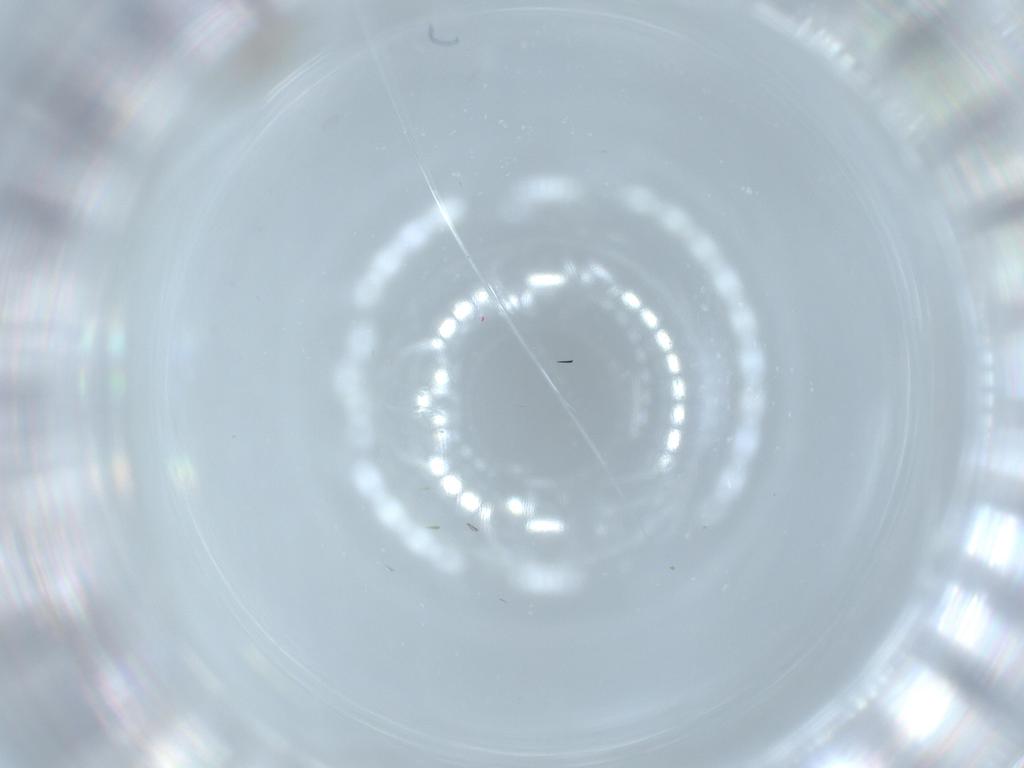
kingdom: Animalia
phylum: Arthropoda
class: Insecta
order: Diptera
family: Cecidomyiidae
